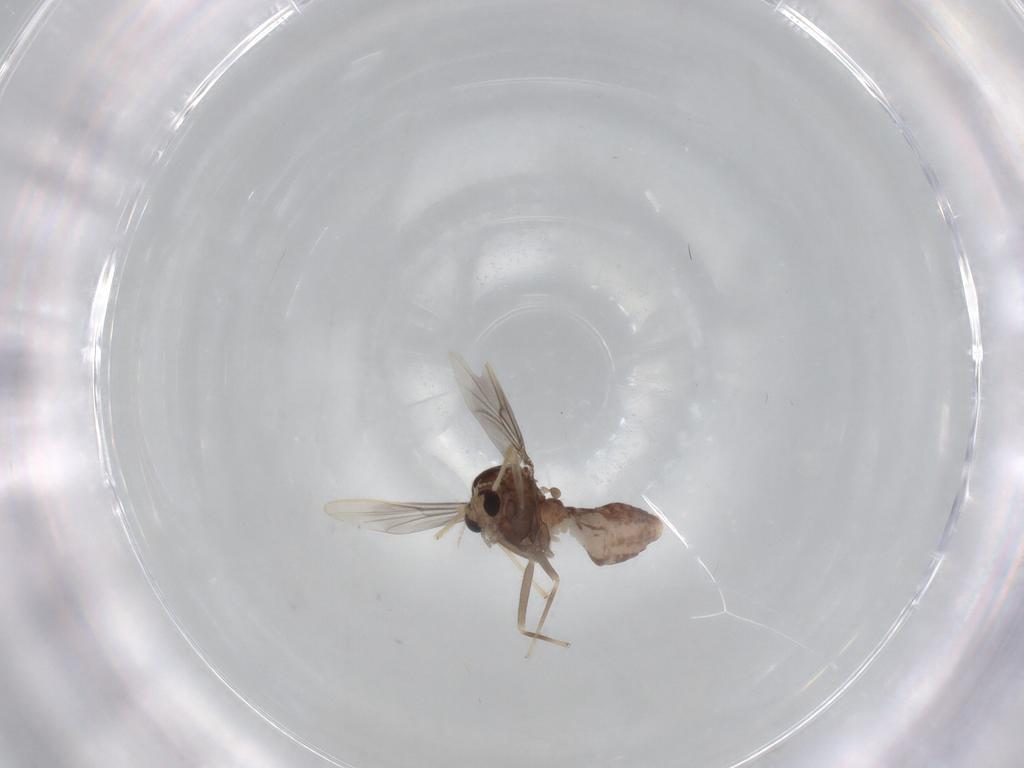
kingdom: Animalia
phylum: Arthropoda
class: Insecta
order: Diptera
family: Chironomidae
